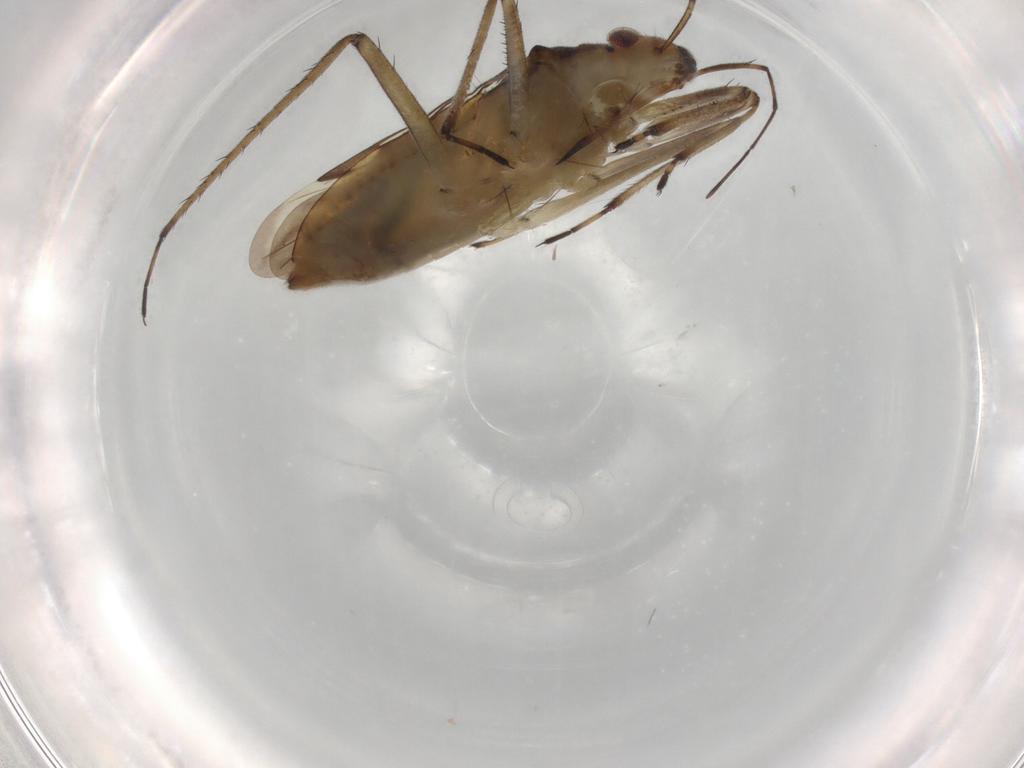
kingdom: Animalia
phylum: Arthropoda
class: Insecta
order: Hemiptera
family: Mesoveliidae
